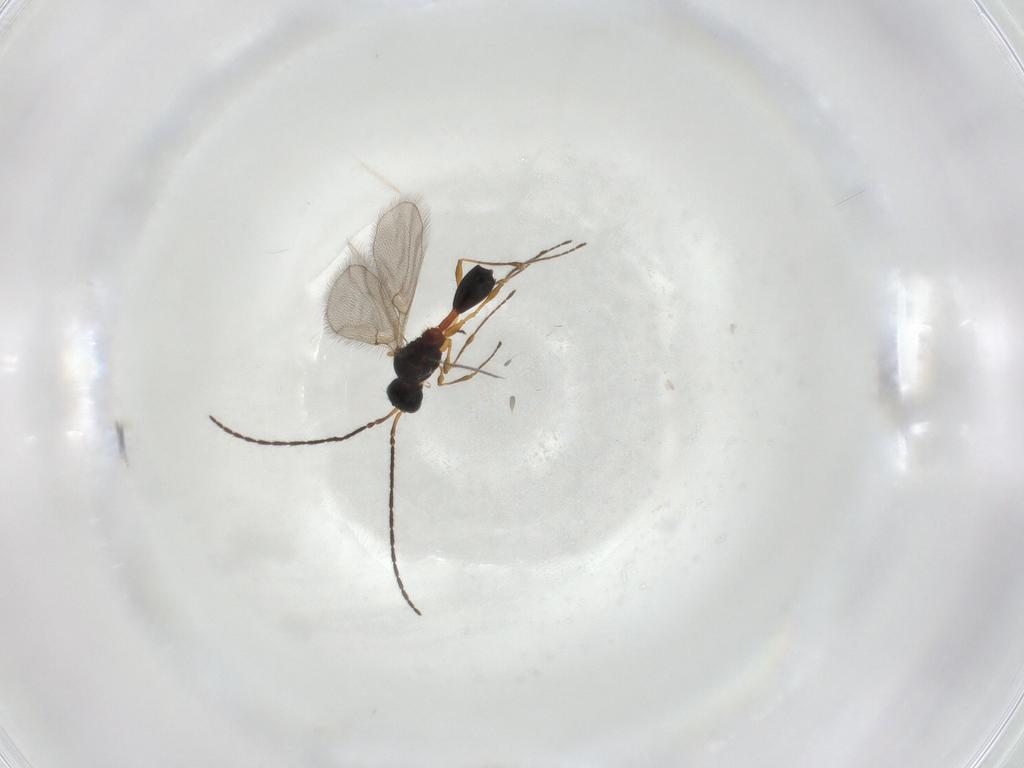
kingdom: Animalia
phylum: Arthropoda
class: Insecta
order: Hymenoptera
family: Diapriidae
